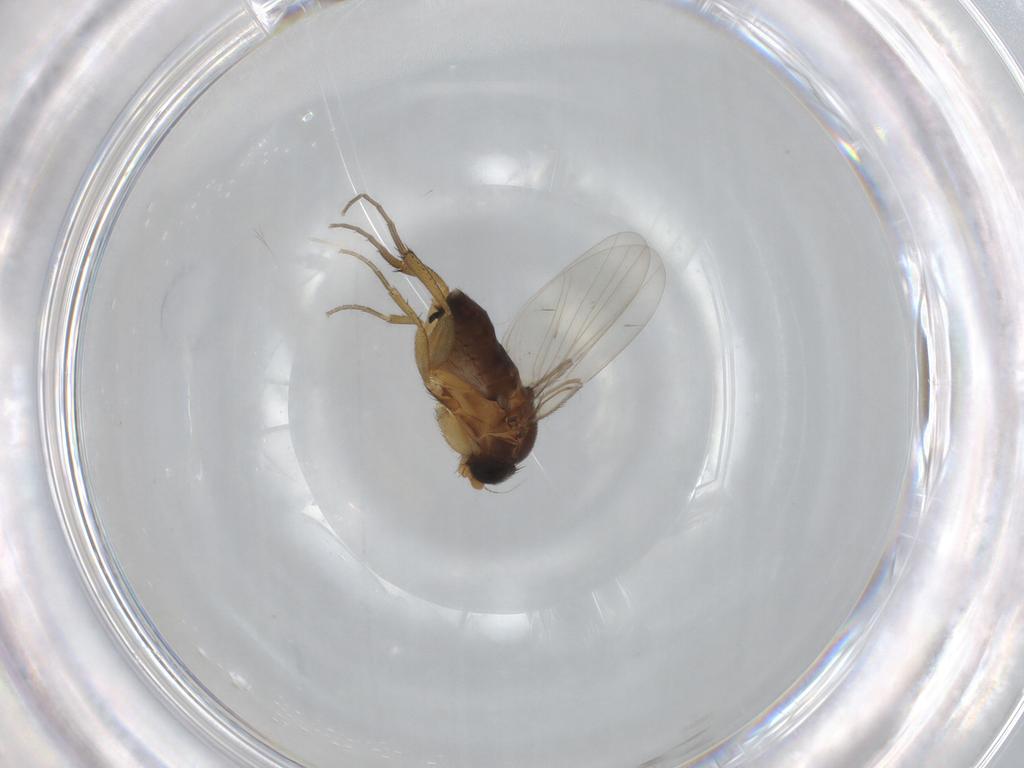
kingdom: Animalia
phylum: Arthropoda
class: Insecta
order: Diptera
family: Phoridae
